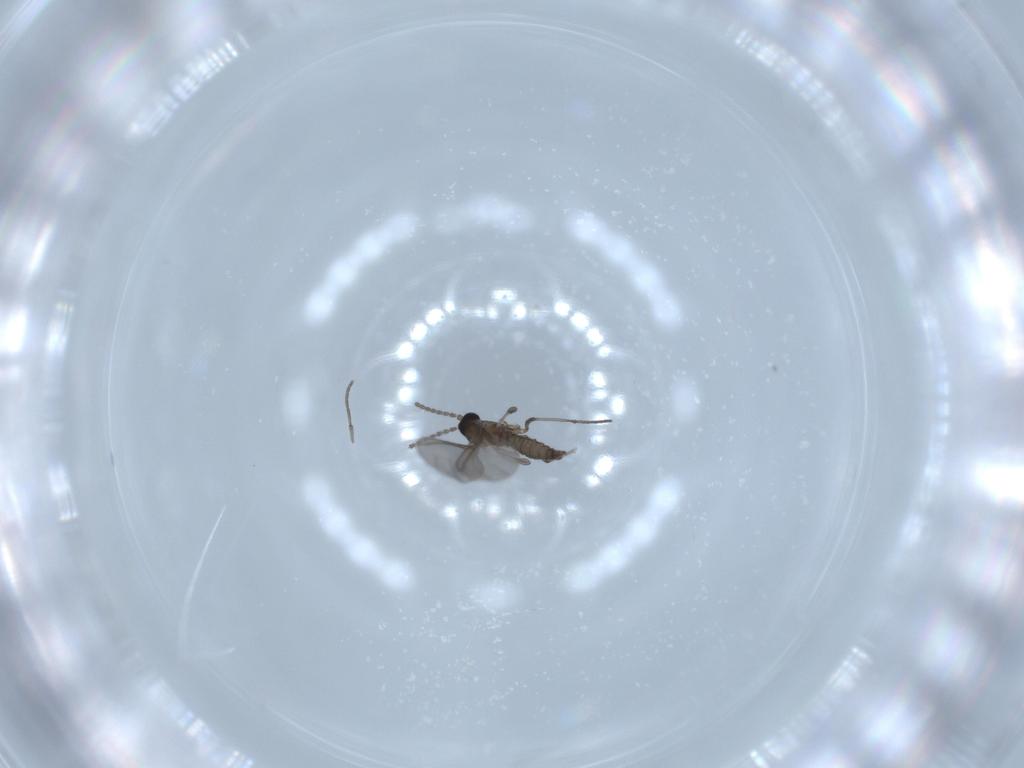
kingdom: Animalia
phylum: Arthropoda
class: Insecta
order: Diptera
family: Sciaridae
